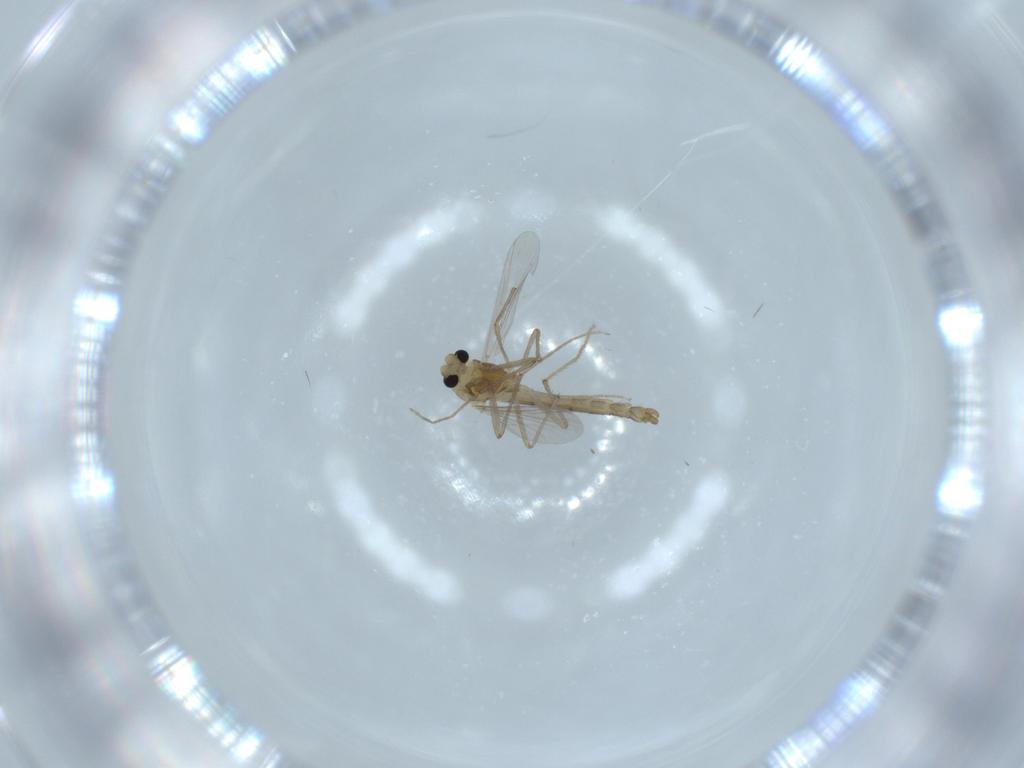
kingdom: Animalia
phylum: Arthropoda
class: Insecta
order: Diptera
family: Chironomidae
